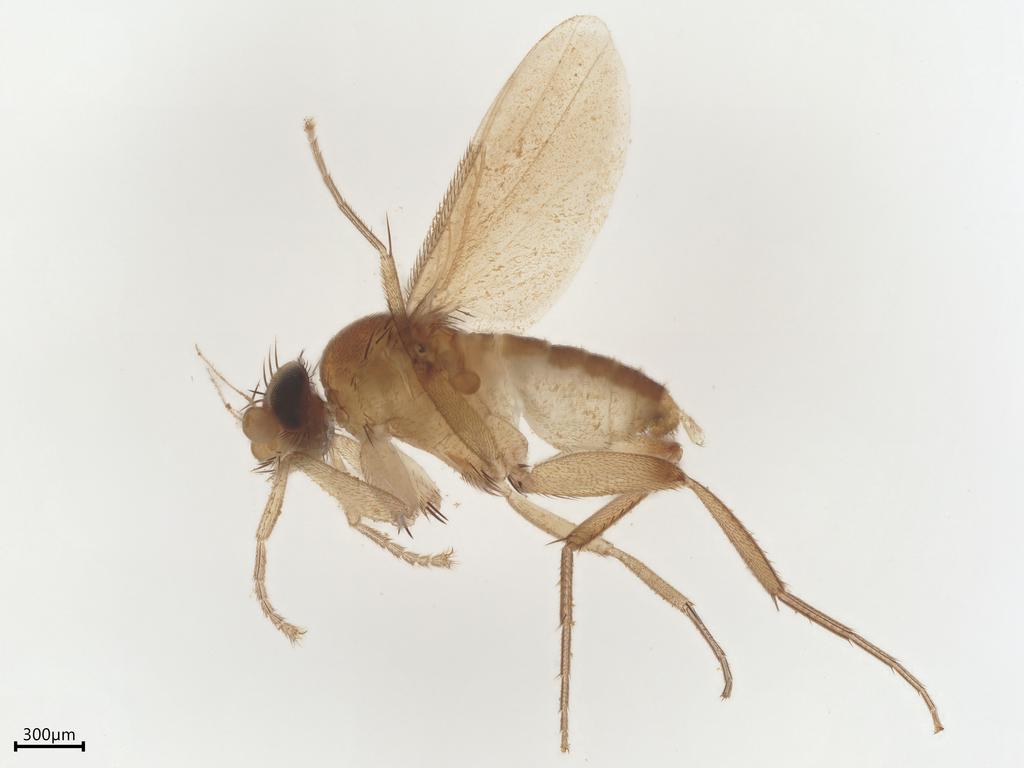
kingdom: Animalia
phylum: Arthropoda
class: Insecta
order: Diptera
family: Phoridae
